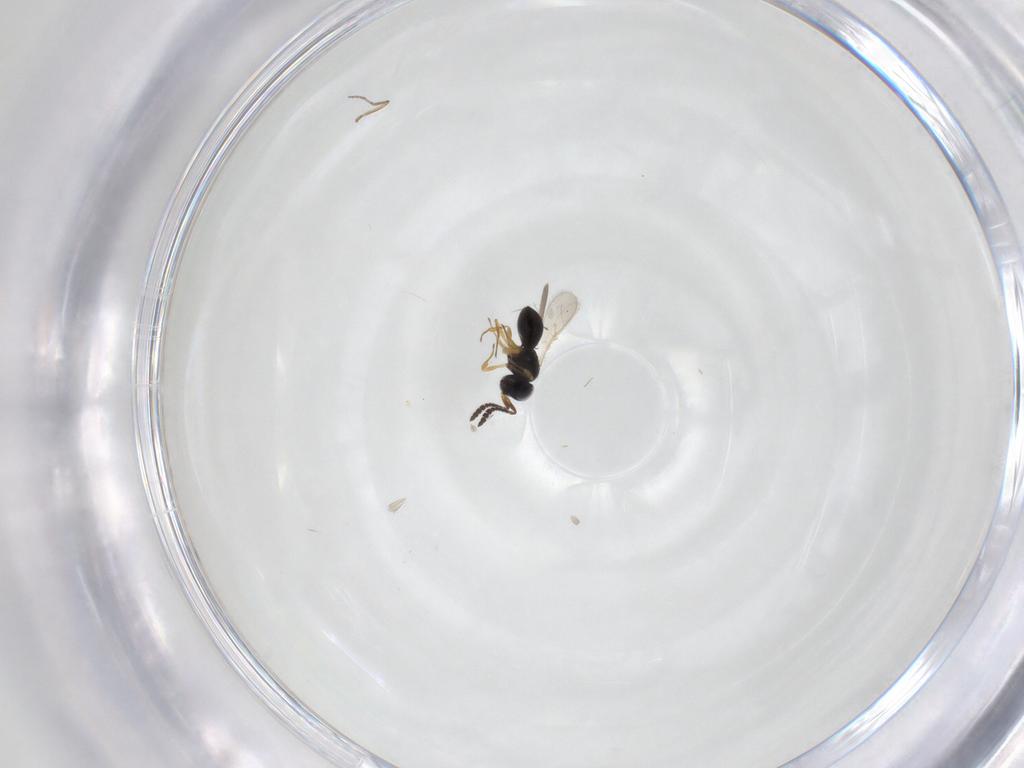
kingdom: Animalia
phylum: Arthropoda
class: Insecta
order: Hymenoptera
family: Scelionidae
